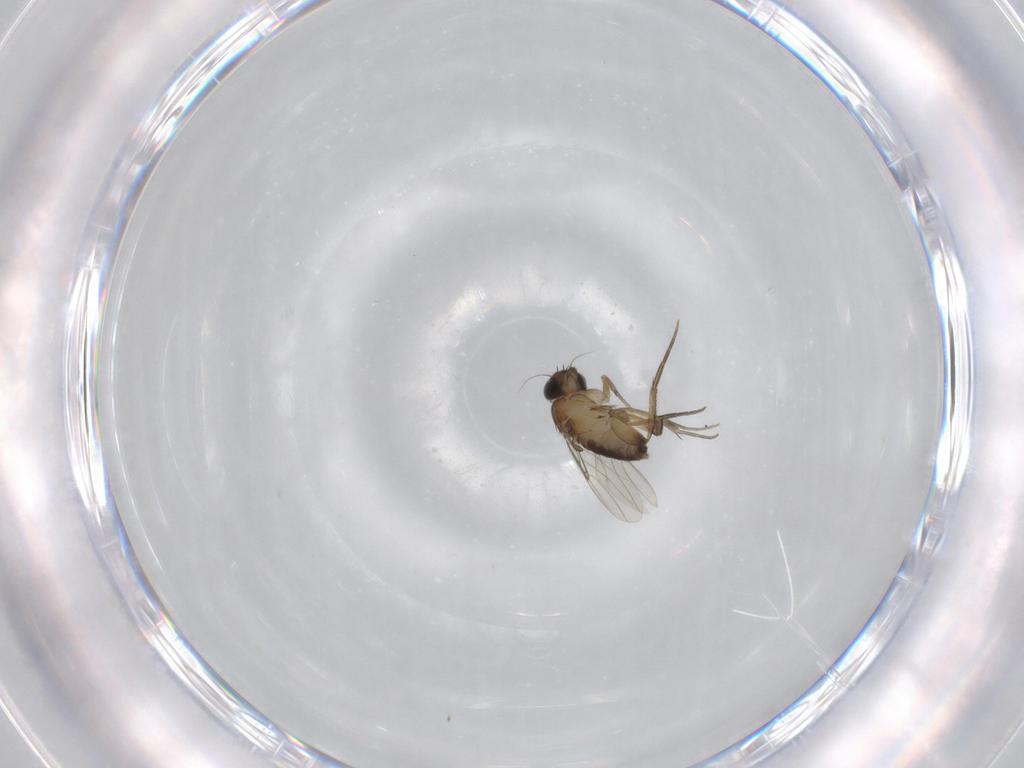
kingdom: Animalia
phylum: Arthropoda
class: Insecta
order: Diptera
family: Phoridae
